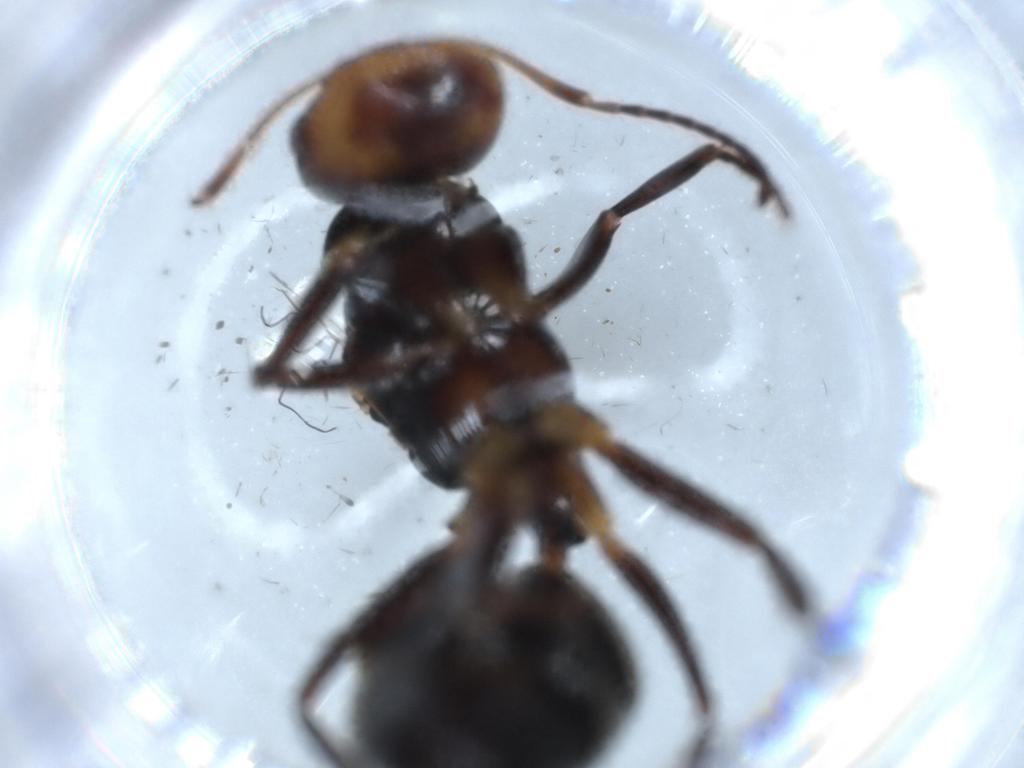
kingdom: Animalia
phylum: Arthropoda
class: Insecta
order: Hymenoptera
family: Formicidae
